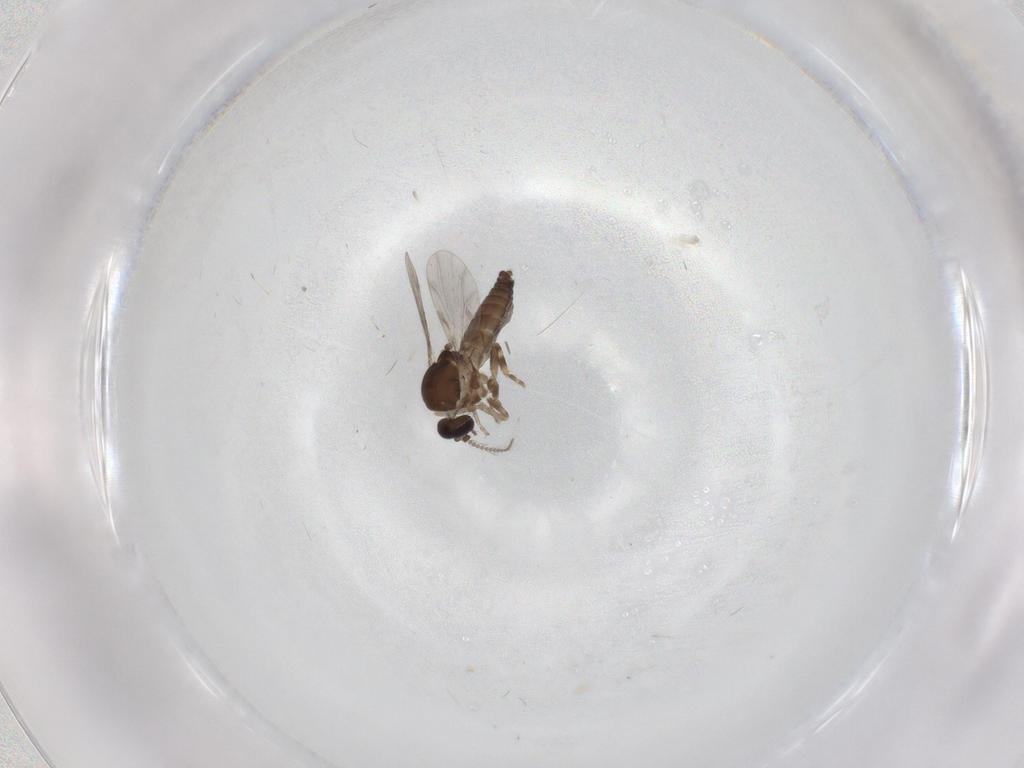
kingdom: Animalia
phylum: Arthropoda
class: Insecta
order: Diptera
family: Ceratopogonidae
